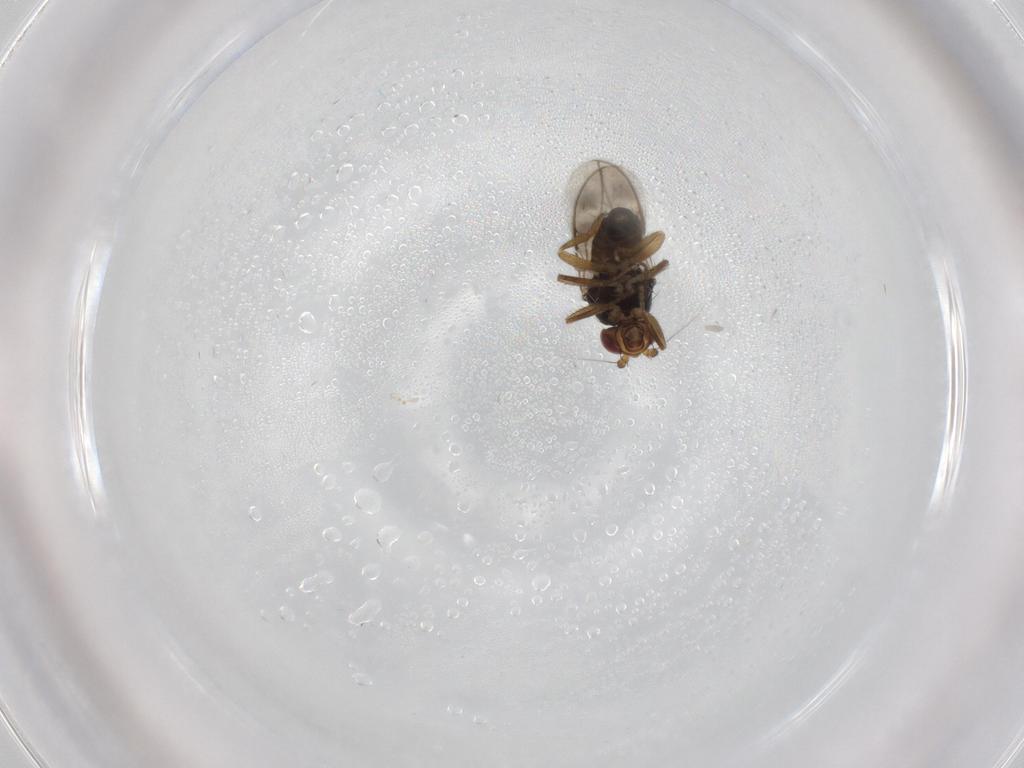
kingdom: Animalia
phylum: Arthropoda
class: Insecta
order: Diptera
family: Sphaeroceridae
